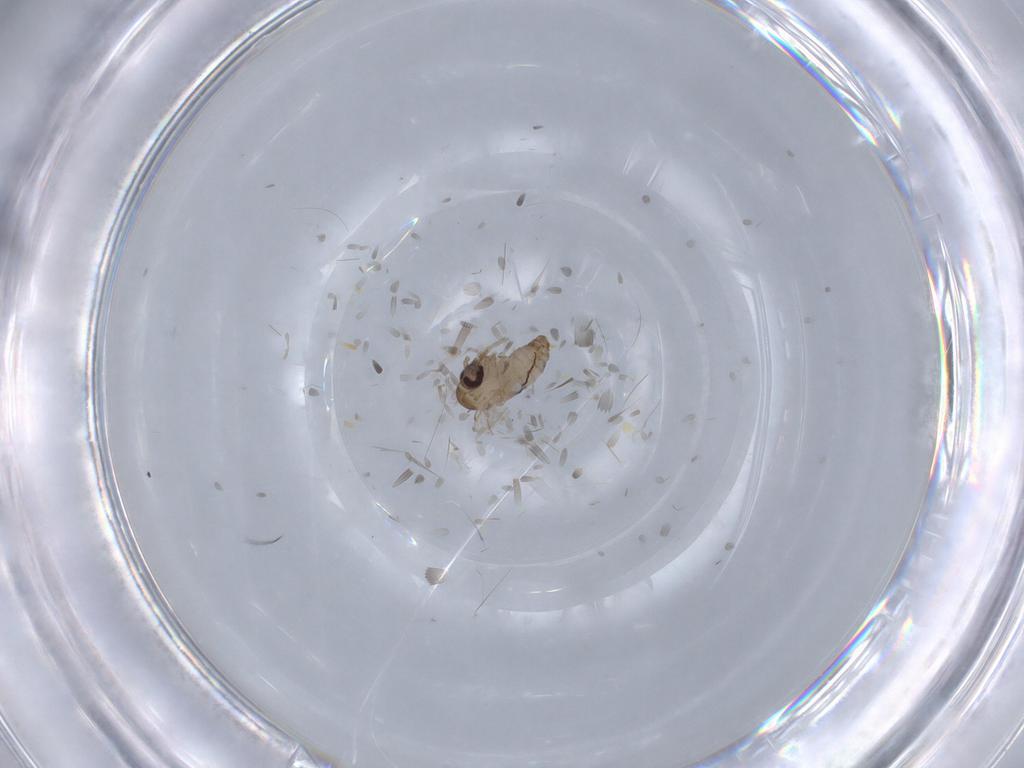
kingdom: Animalia
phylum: Arthropoda
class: Insecta
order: Diptera
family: Psychodidae
